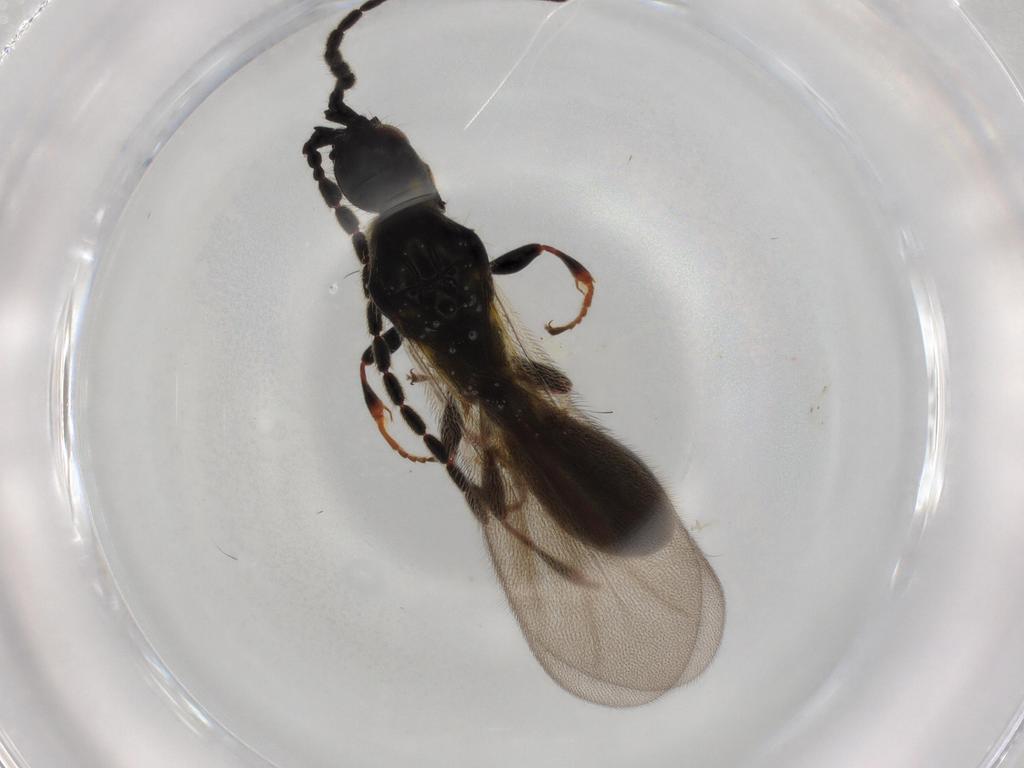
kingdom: Animalia
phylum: Arthropoda
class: Insecta
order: Hymenoptera
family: Diapriidae
